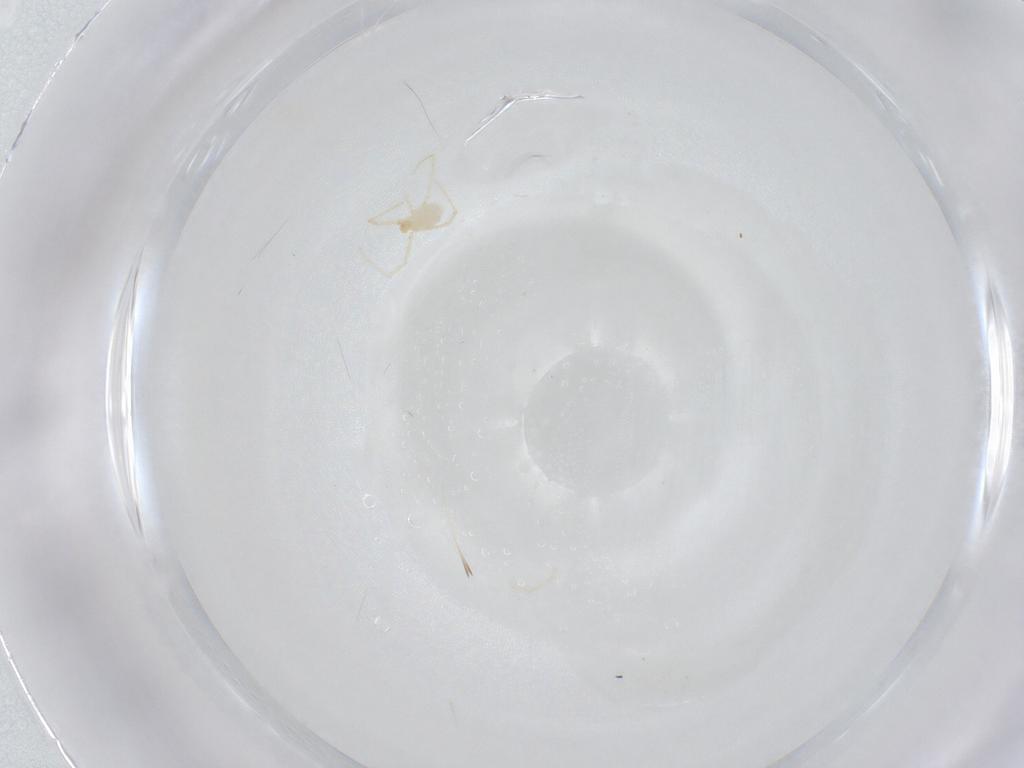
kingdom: Animalia
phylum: Arthropoda
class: Arachnida
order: Trombidiformes
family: Erythraeidae
